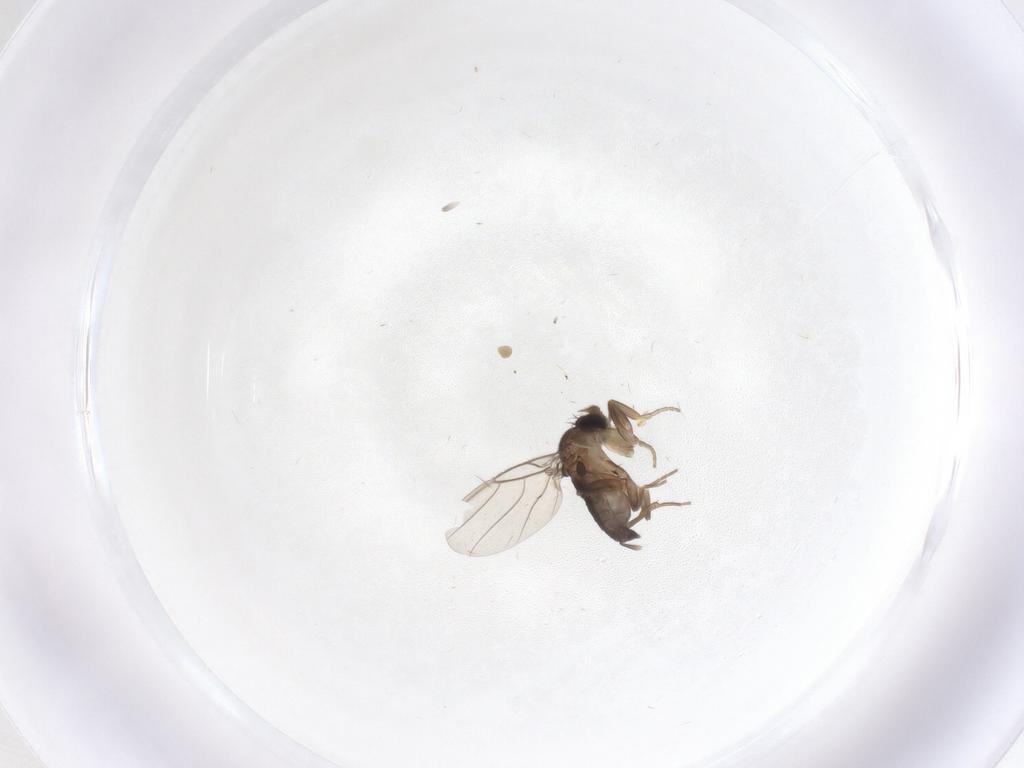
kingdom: Animalia
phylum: Arthropoda
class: Insecta
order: Diptera
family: Phoridae
